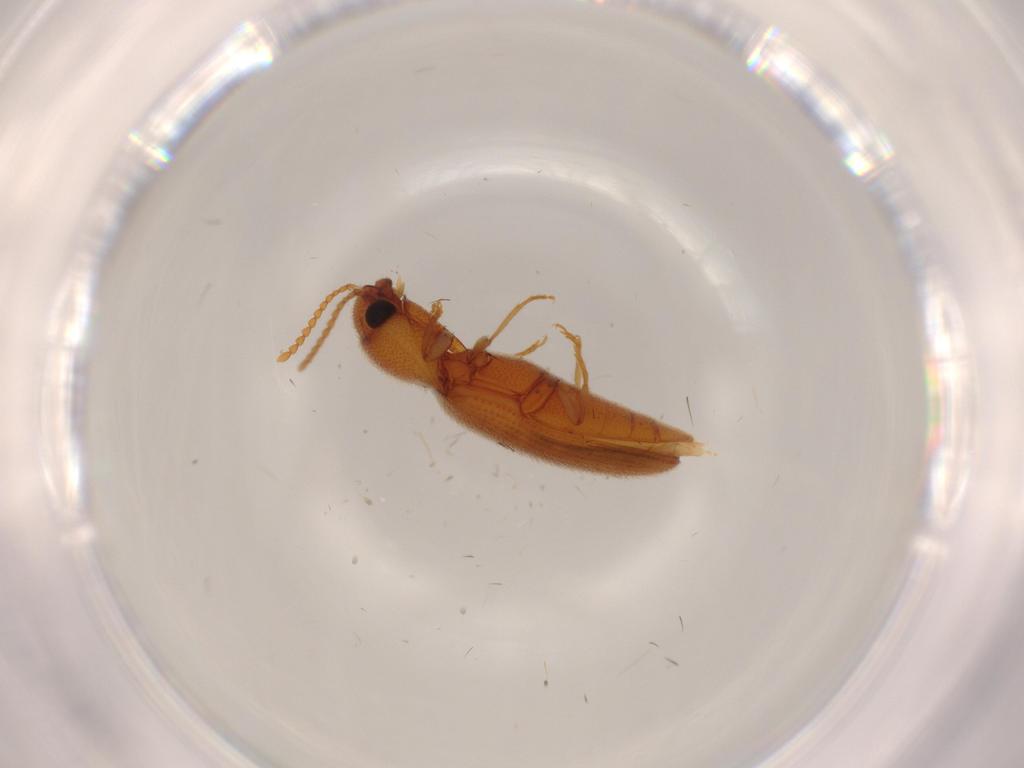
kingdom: Animalia
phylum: Arthropoda
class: Insecta
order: Coleoptera
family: Elateridae
